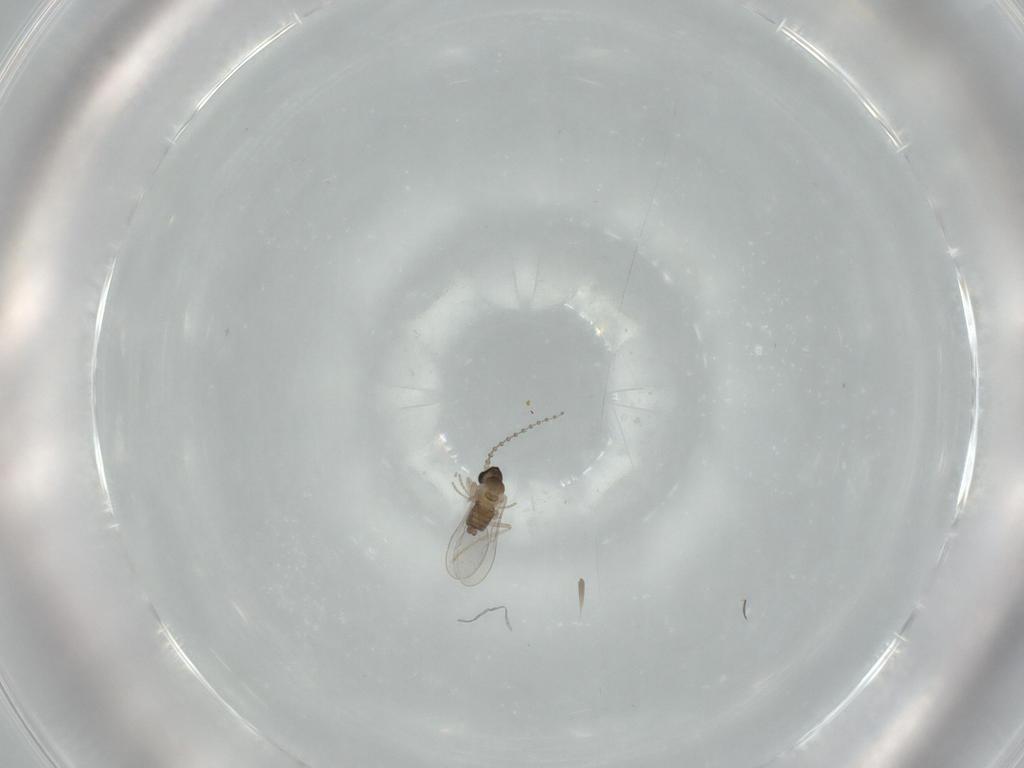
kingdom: Animalia
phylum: Arthropoda
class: Insecta
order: Diptera
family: Cecidomyiidae
